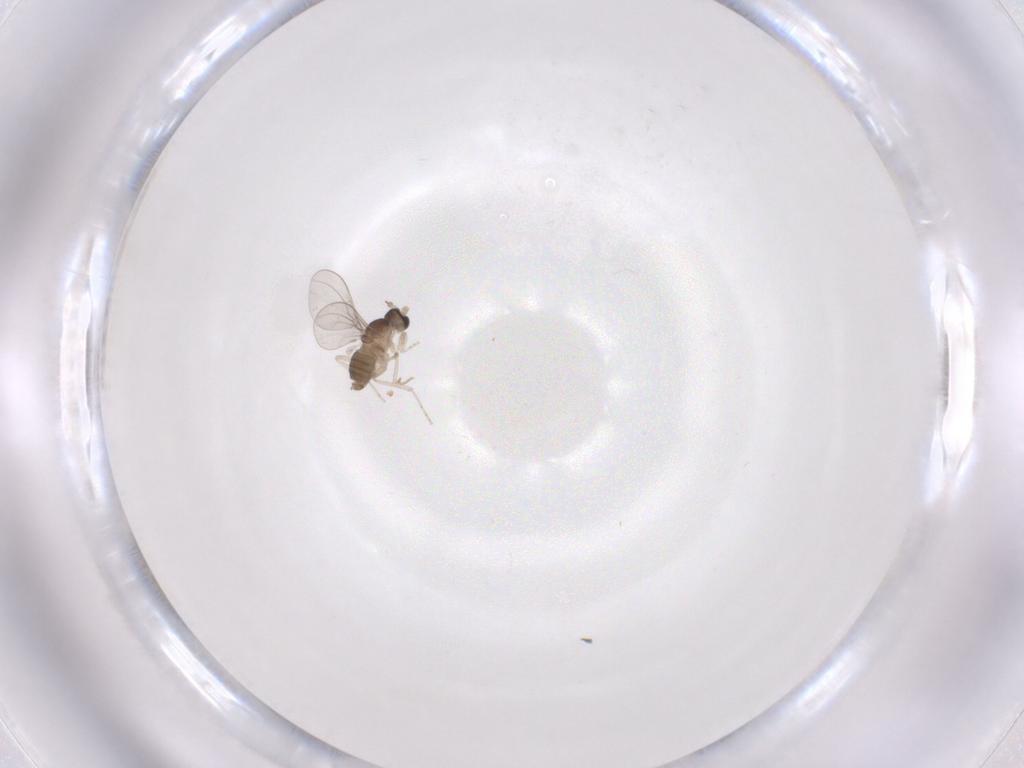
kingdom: Animalia
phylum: Arthropoda
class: Insecta
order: Diptera
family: Cecidomyiidae
